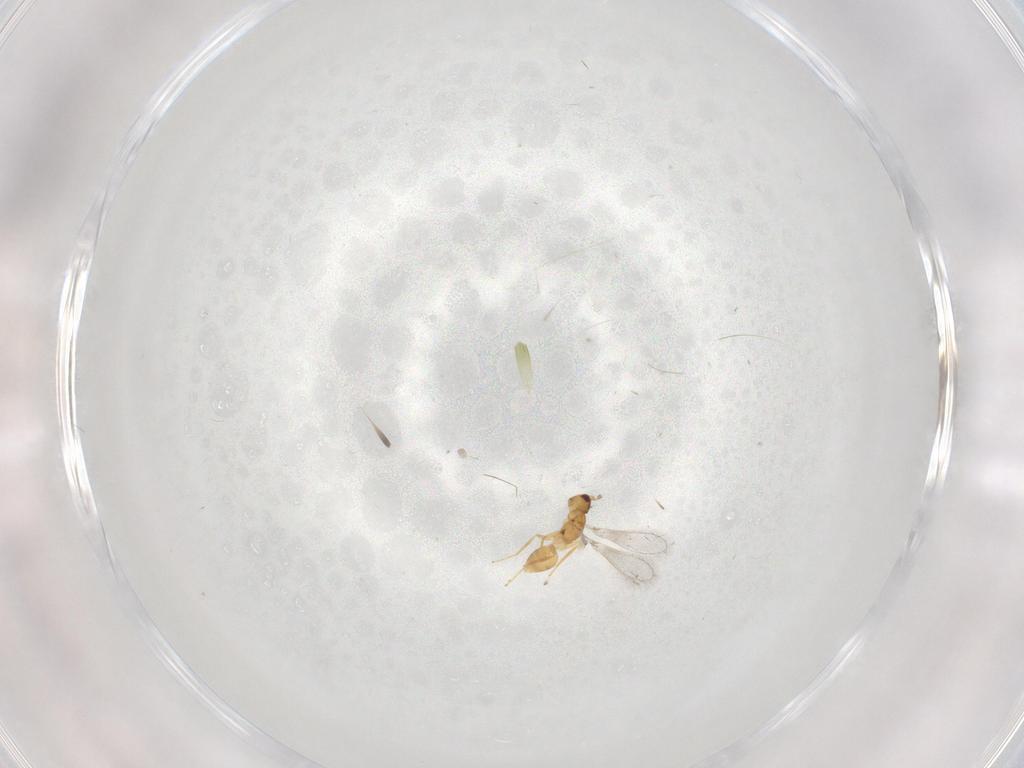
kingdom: Animalia
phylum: Arthropoda
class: Insecta
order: Hymenoptera
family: Mymaridae
